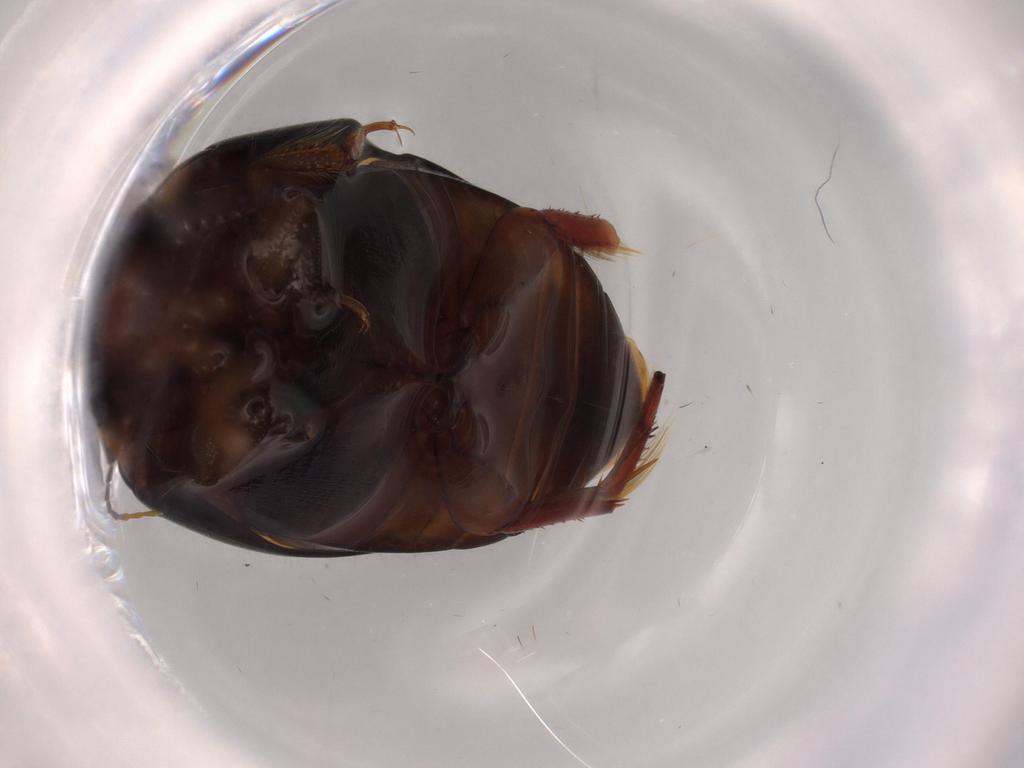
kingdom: Animalia
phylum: Arthropoda
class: Insecta
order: Coleoptera
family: Dytiscidae
